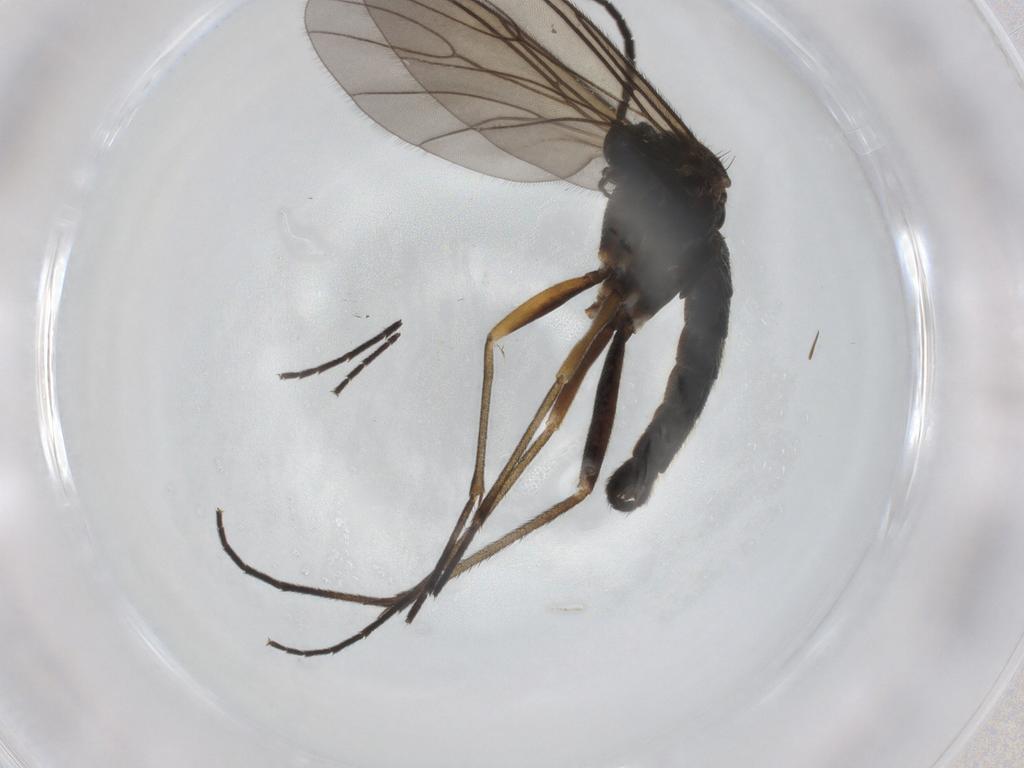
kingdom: Animalia
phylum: Arthropoda
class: Insecta
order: Diptera
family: Sciaridae
